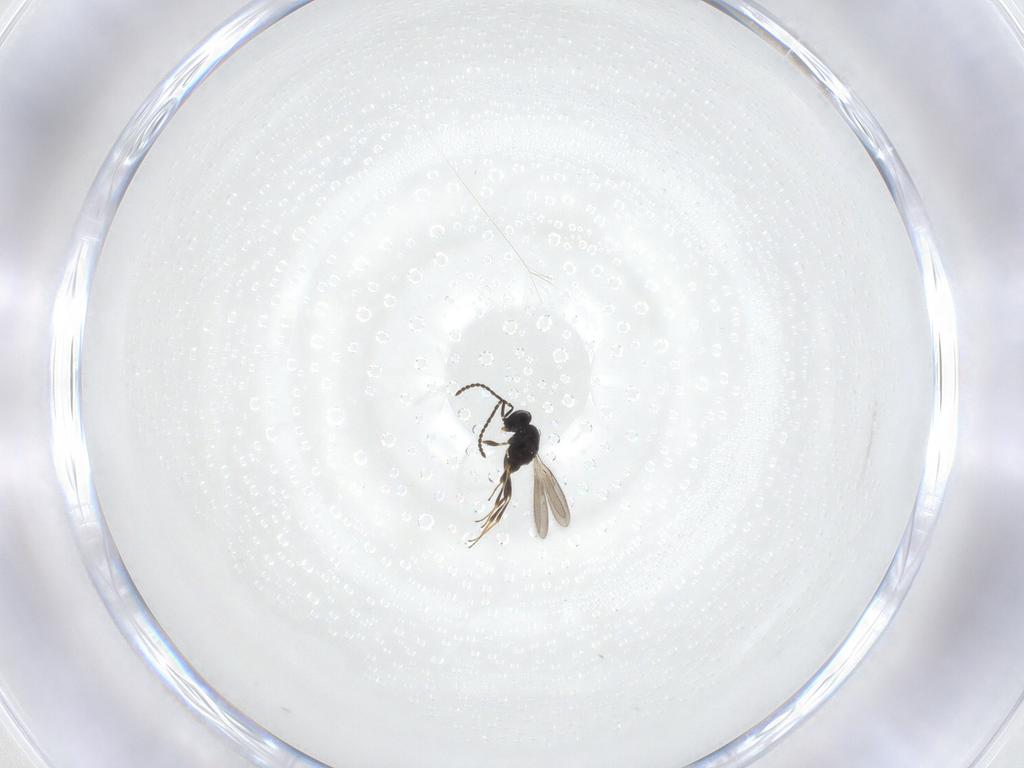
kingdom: Animalia
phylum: Arthropoda
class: Insecta
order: Hymenoptera
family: Scelionidae
